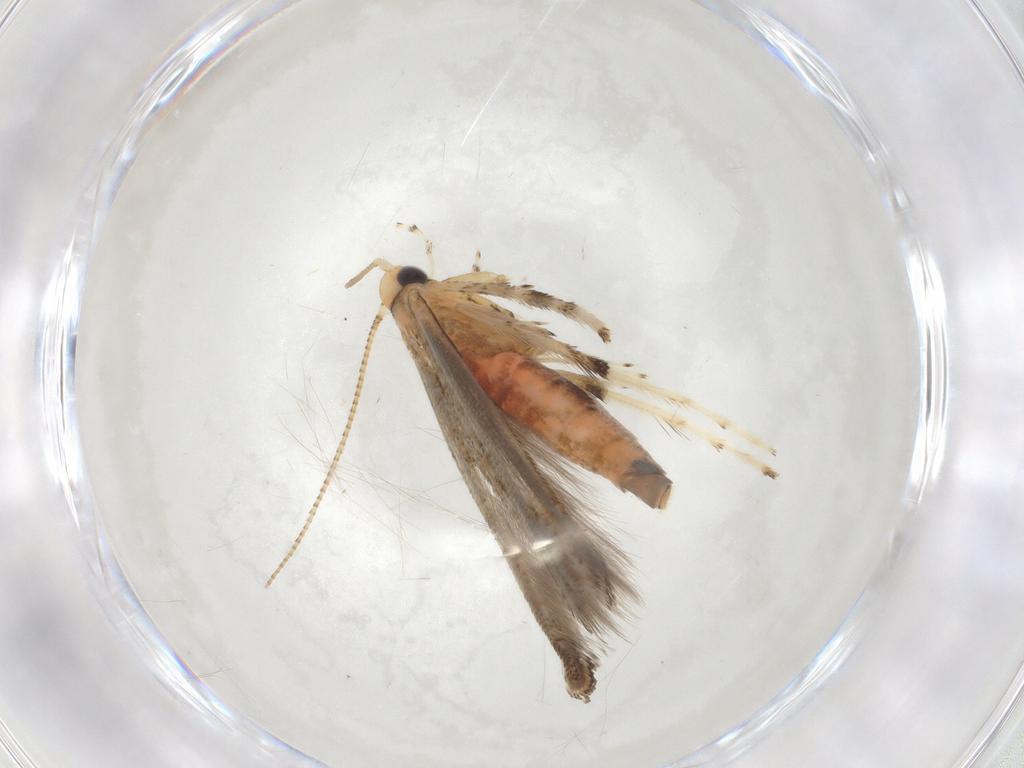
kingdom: Animalia
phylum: Arthropoda
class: Insecta
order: Lepidoptera
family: Gracillariidae
